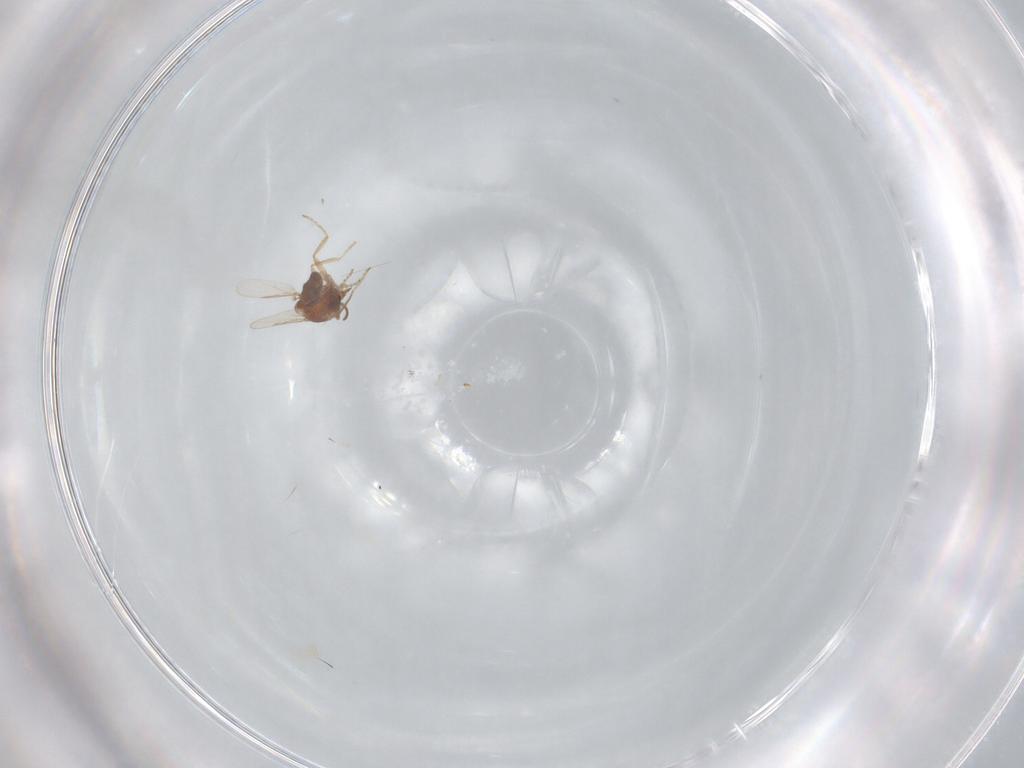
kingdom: Animalia
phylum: Arthropoda
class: Insecta
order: Diptera
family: Ceratopogonidae
